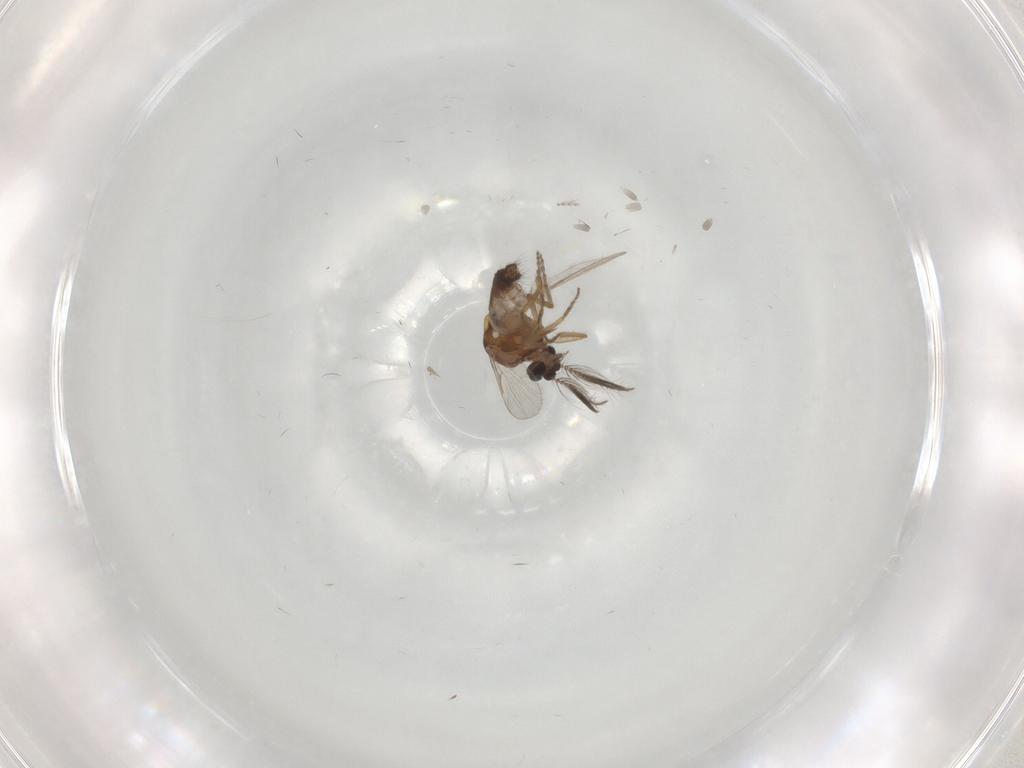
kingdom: Animalia
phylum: Arthropoda
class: Insecta
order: Diptera
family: Cecidomyiidae
